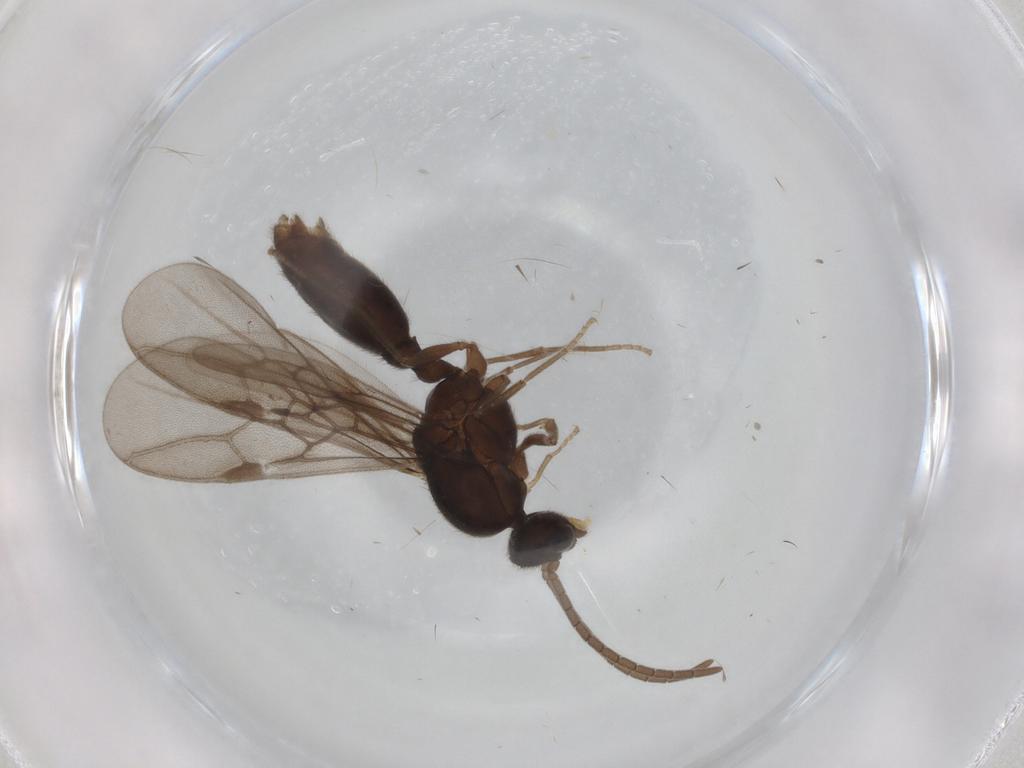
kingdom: Animalia
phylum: Arthropoda
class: Insecta
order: Hymenoptera
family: Formicidae
